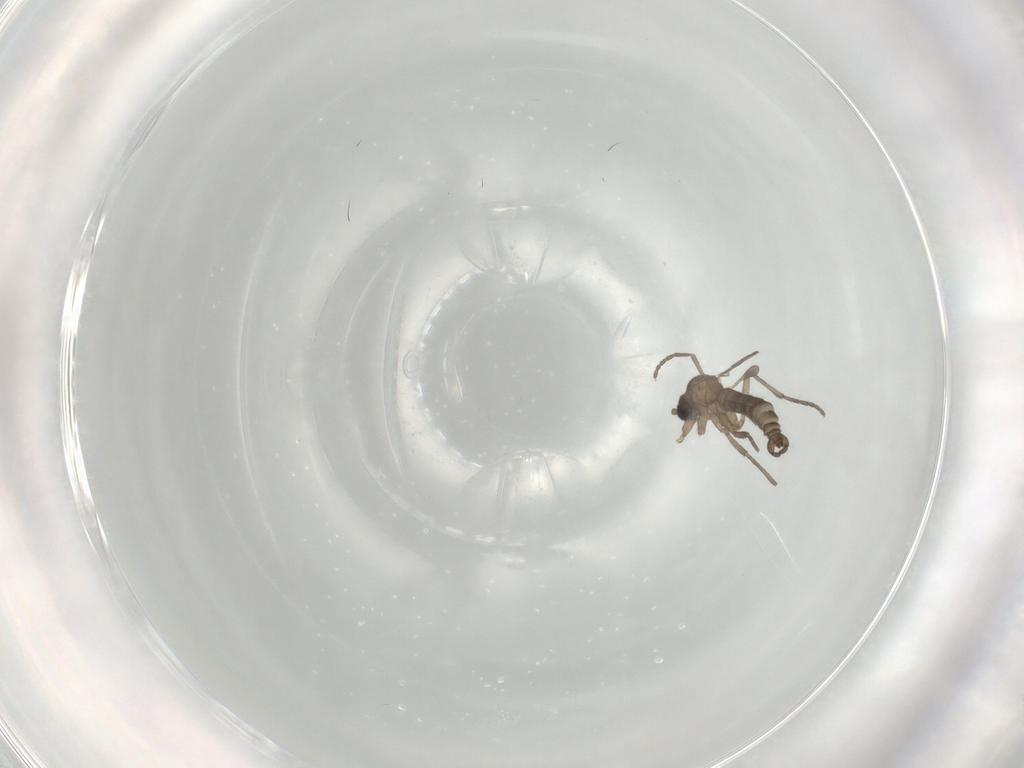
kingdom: Animalia
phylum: Arthropoda
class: Insecta
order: Diptera
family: Sciaridae
